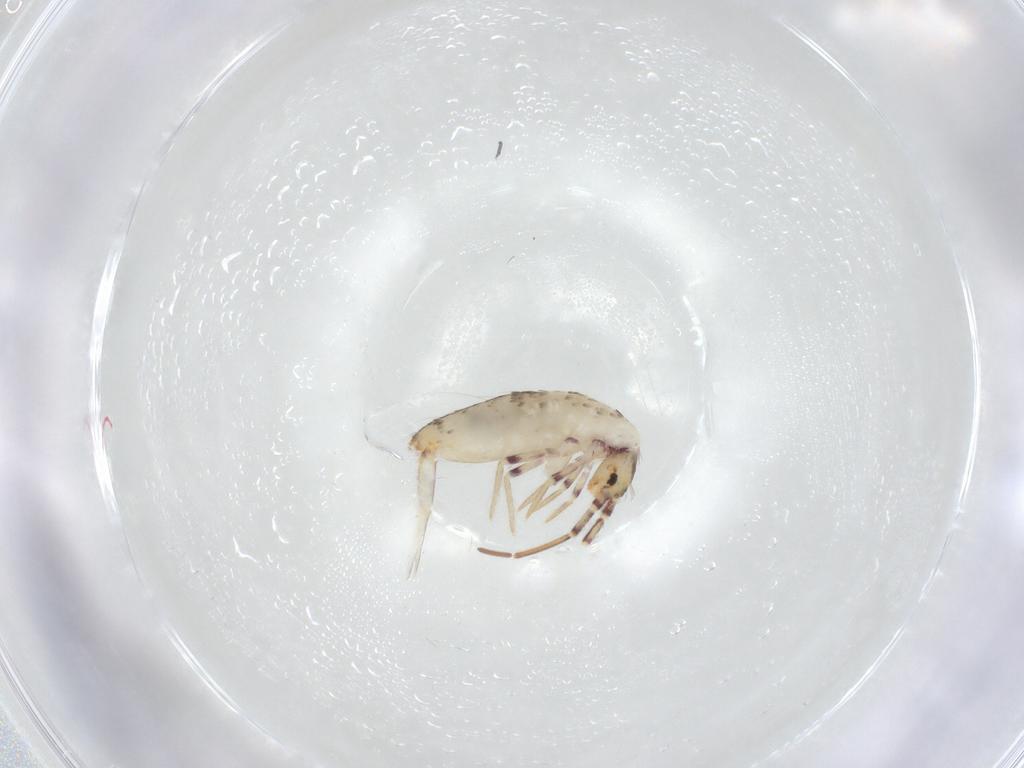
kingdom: Animalia
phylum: Arthropoda
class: Collembola
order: Entomobryomorpha
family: Entomobryidae
